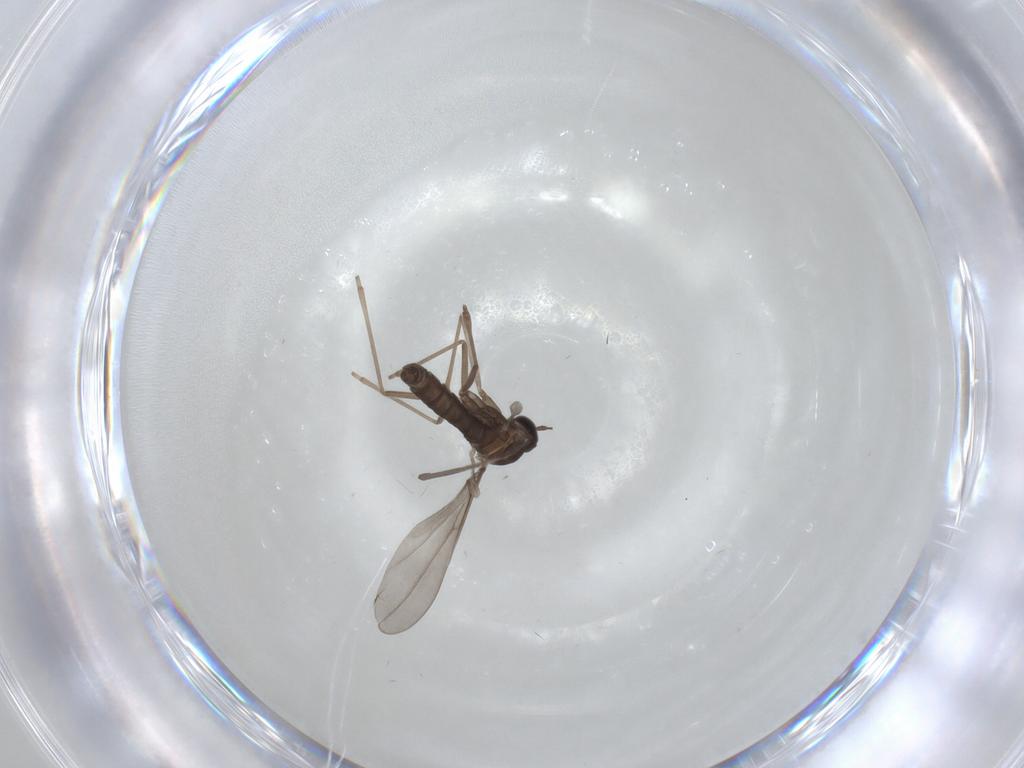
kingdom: Animalia
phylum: Arthropoda
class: Insecta
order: Diptera
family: Cecidomyiidae
